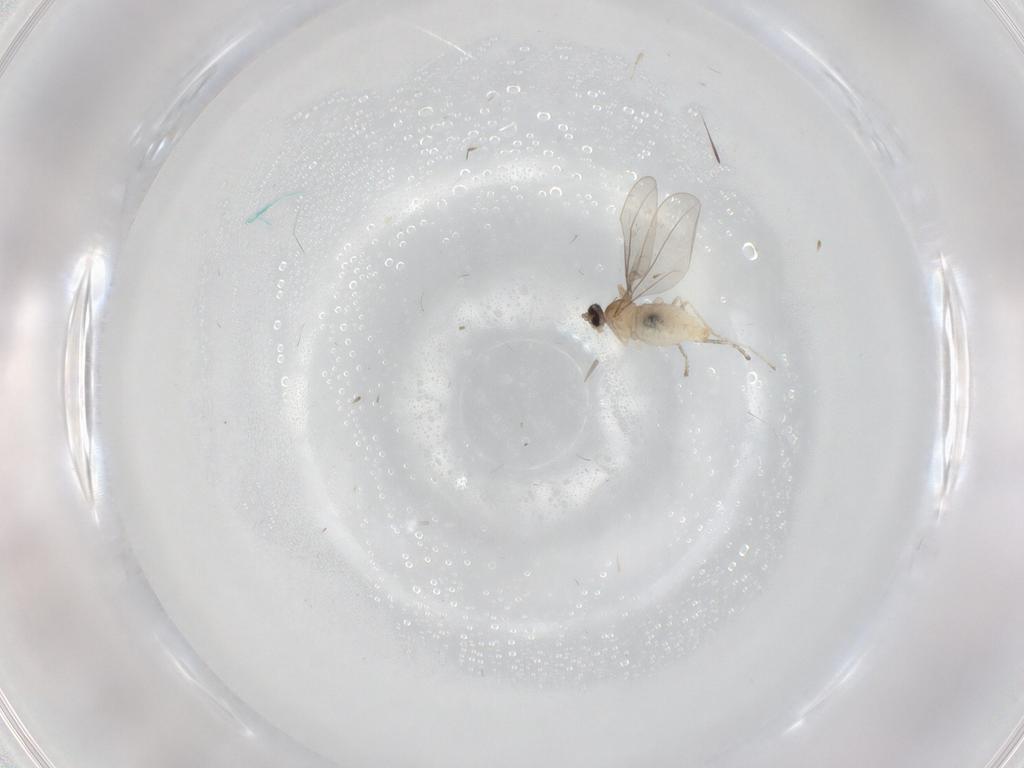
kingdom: Animalia
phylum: Arthropoda
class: Insecta
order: Diptera
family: Cecidomyiidae
